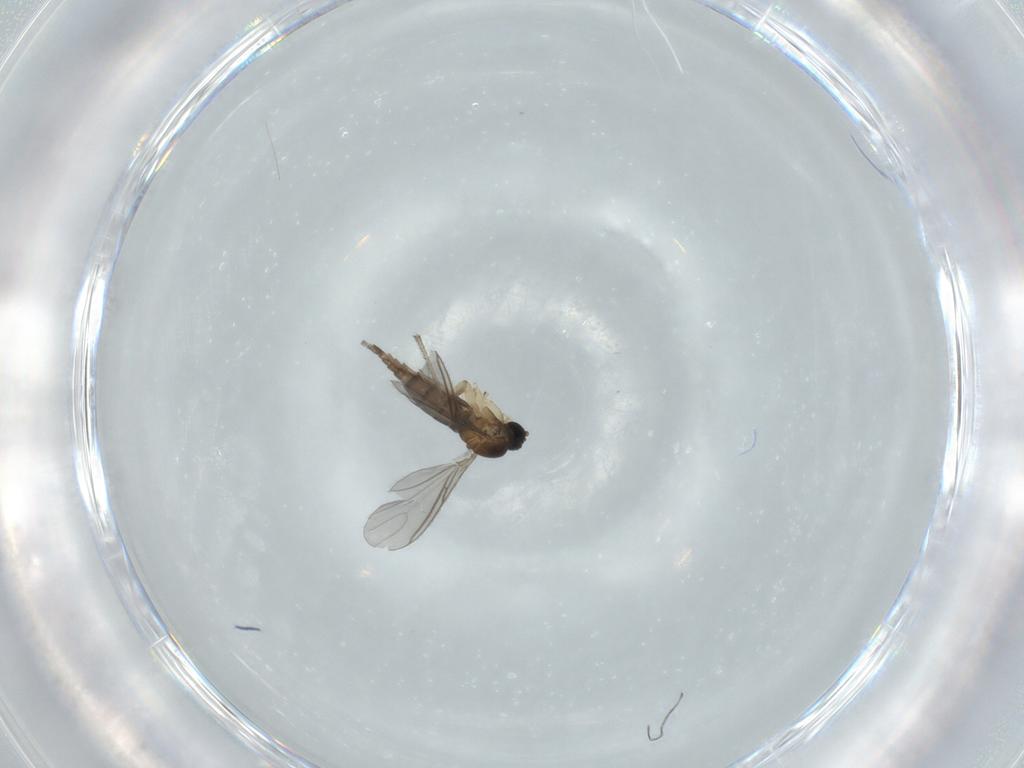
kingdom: Animalia
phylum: Arthropoda
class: Insecta
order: Diptera
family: Sciaridae
